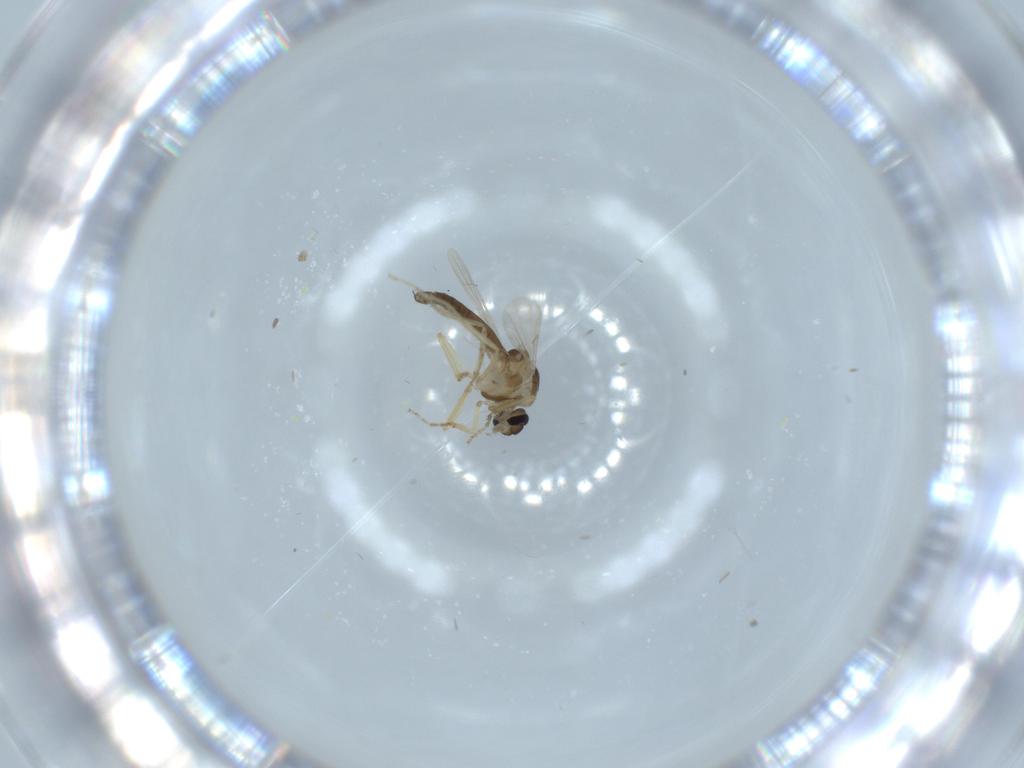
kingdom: Animalia
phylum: Arthropoda
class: Insecta
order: Diptera
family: Ceratopogonidae
